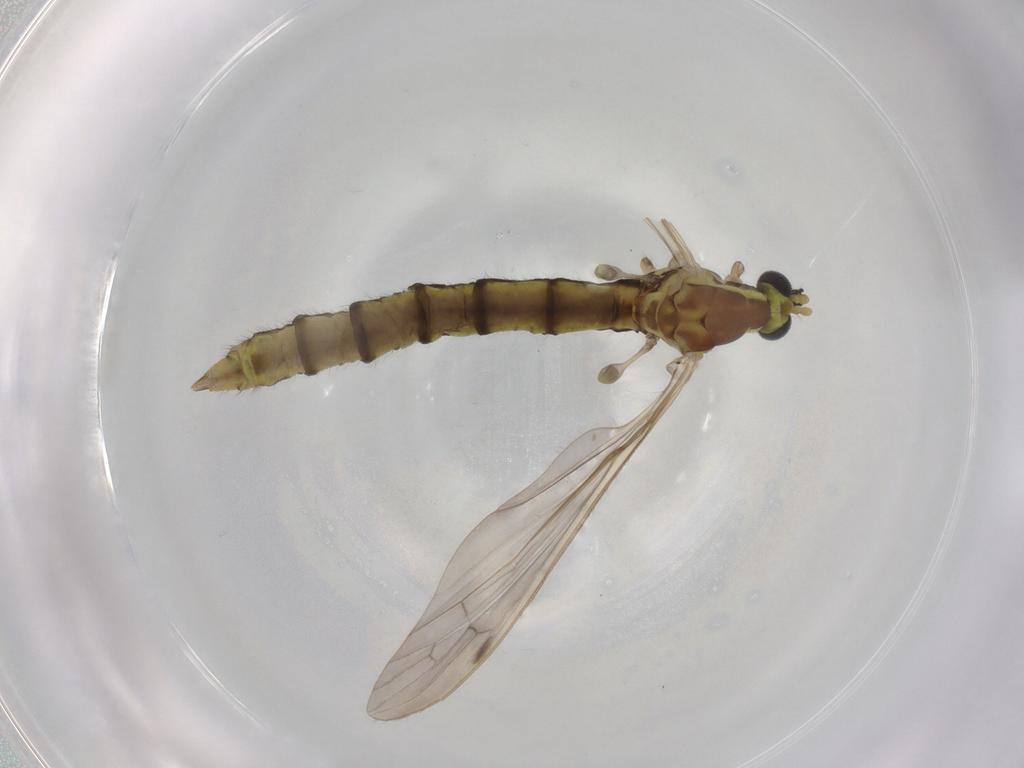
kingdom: Animalia
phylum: Arthropoda
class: Insecta
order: Diptera
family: Limoniidae
